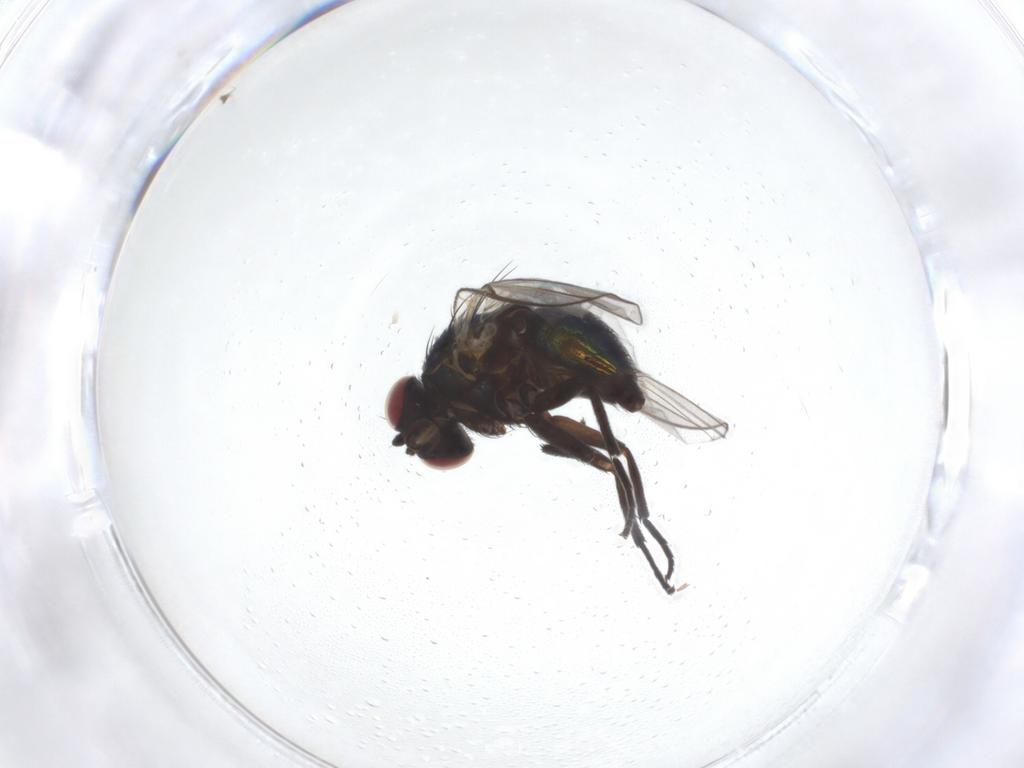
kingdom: Animalia
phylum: Arthropoda
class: Insecta
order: Diptera
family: Agromyzidae
